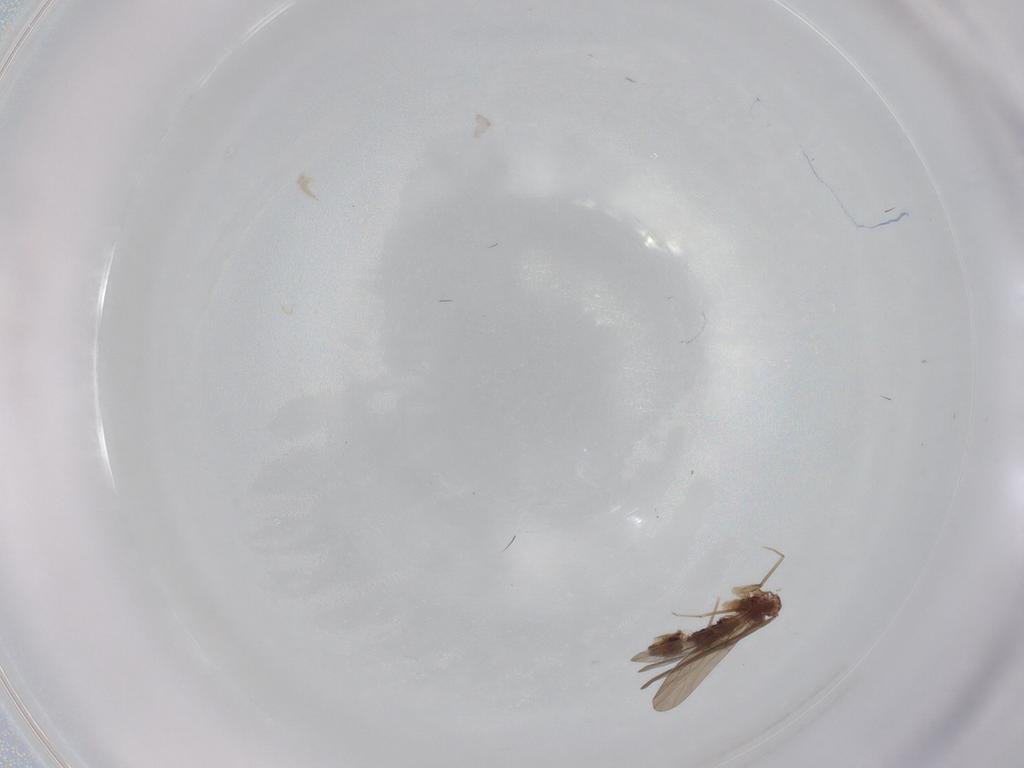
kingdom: Animalia
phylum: Arthropoda
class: Insecta
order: Psocodea
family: Lepidopsocidae
